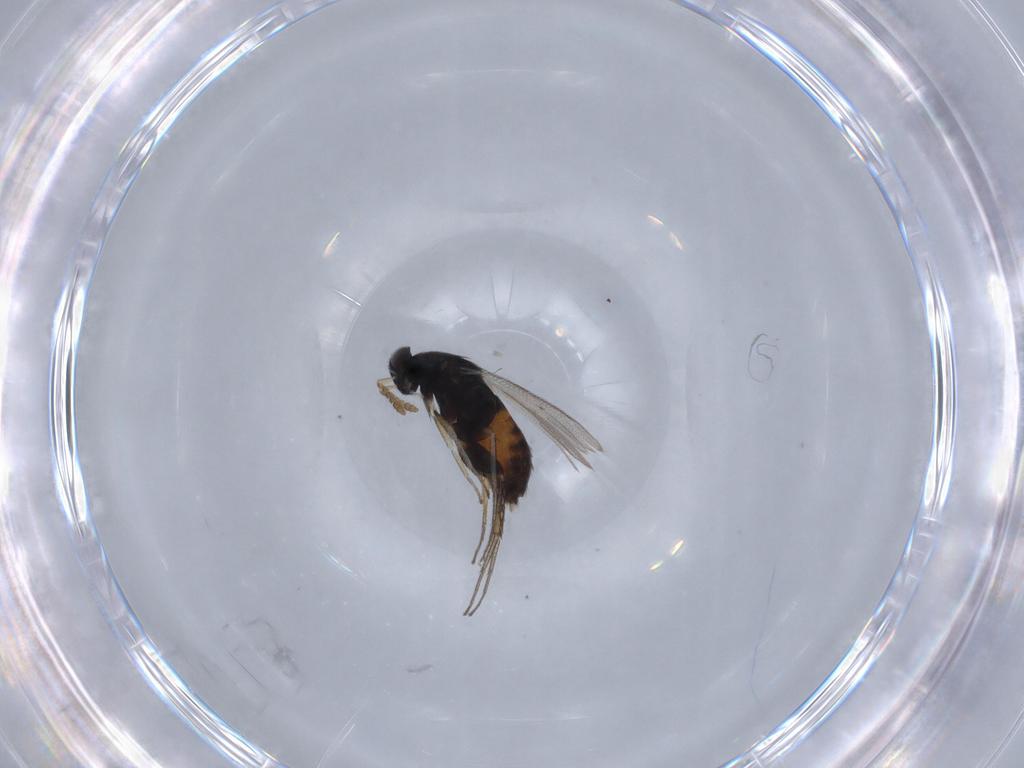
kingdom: Animalia
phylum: Arthropoda
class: Insecta
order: Hymenoptera
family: Eulophidae
